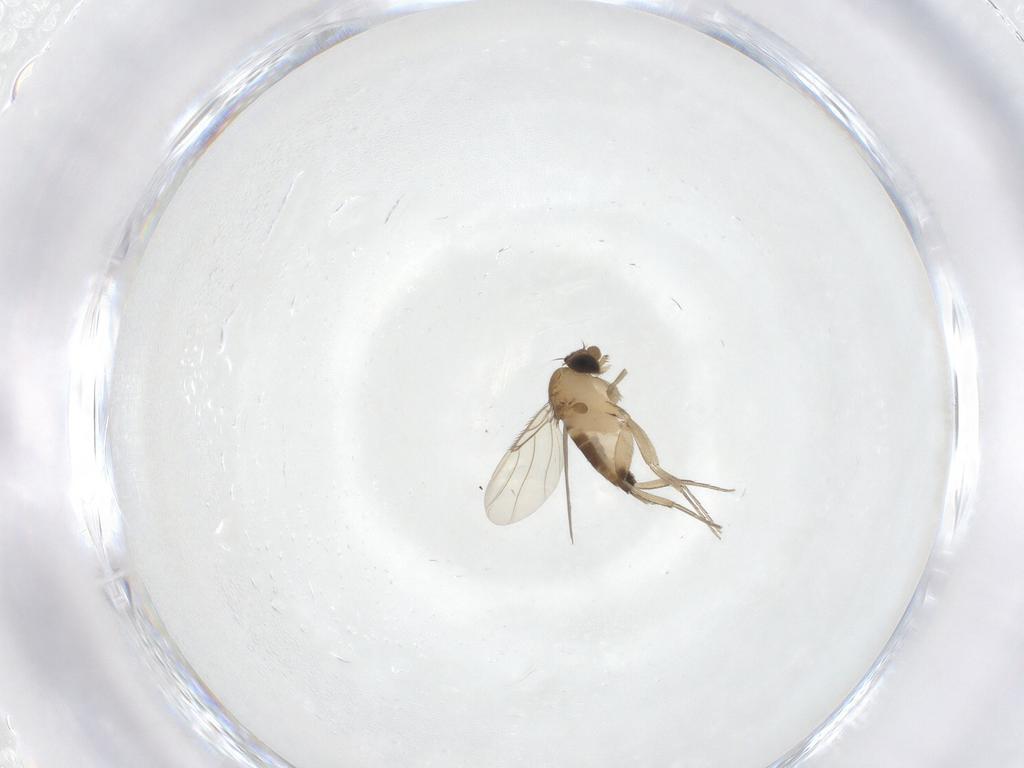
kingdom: Animalia
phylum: Arthropoda
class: Insecta
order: Diptera
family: Phoridae
